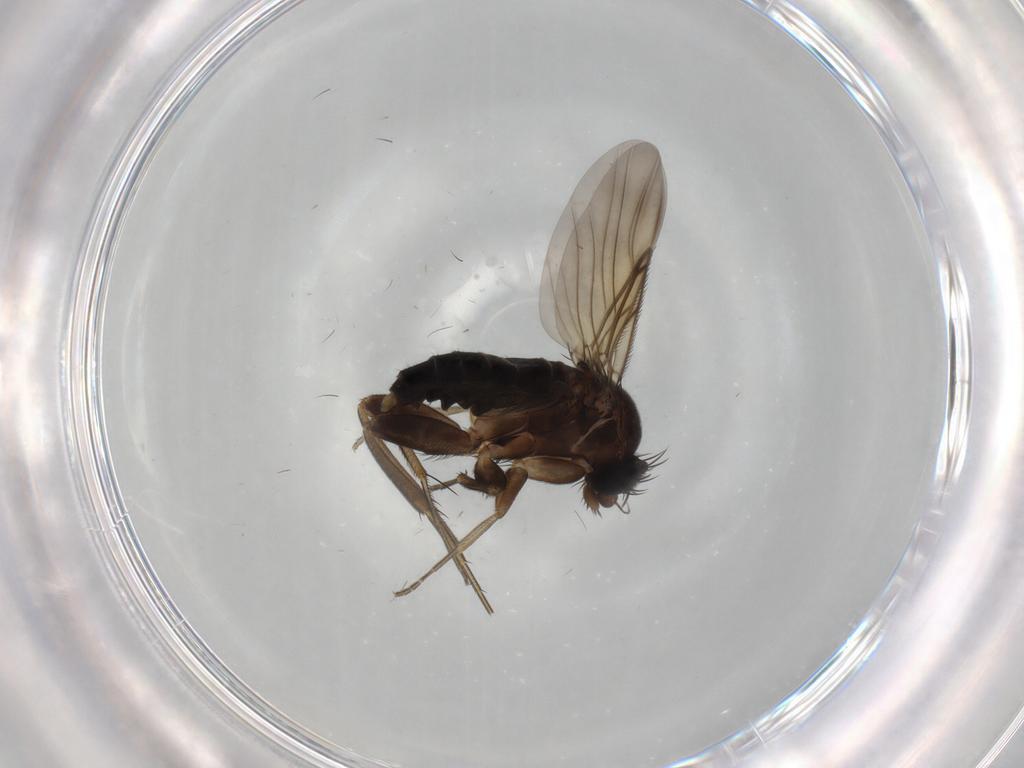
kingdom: Animalia
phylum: Arthropoda
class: Insecta
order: Diptera
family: Phoridae
